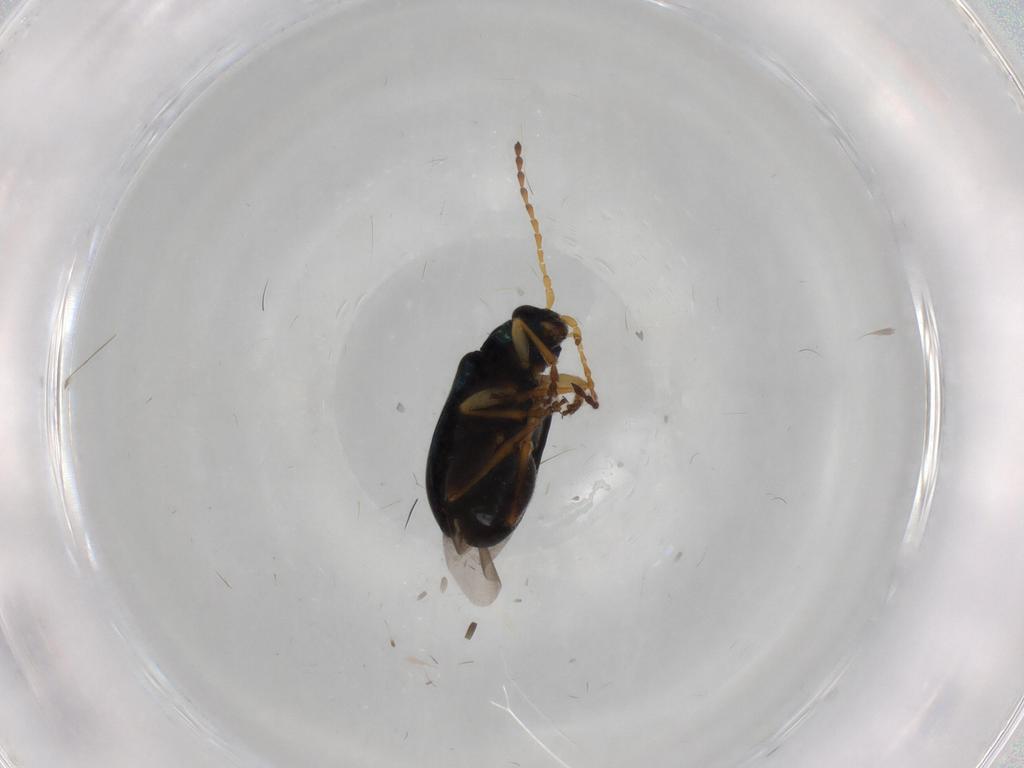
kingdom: Animalia
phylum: Arthropoda
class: Insecta
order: Coleoptera
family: Chrysomelidae
